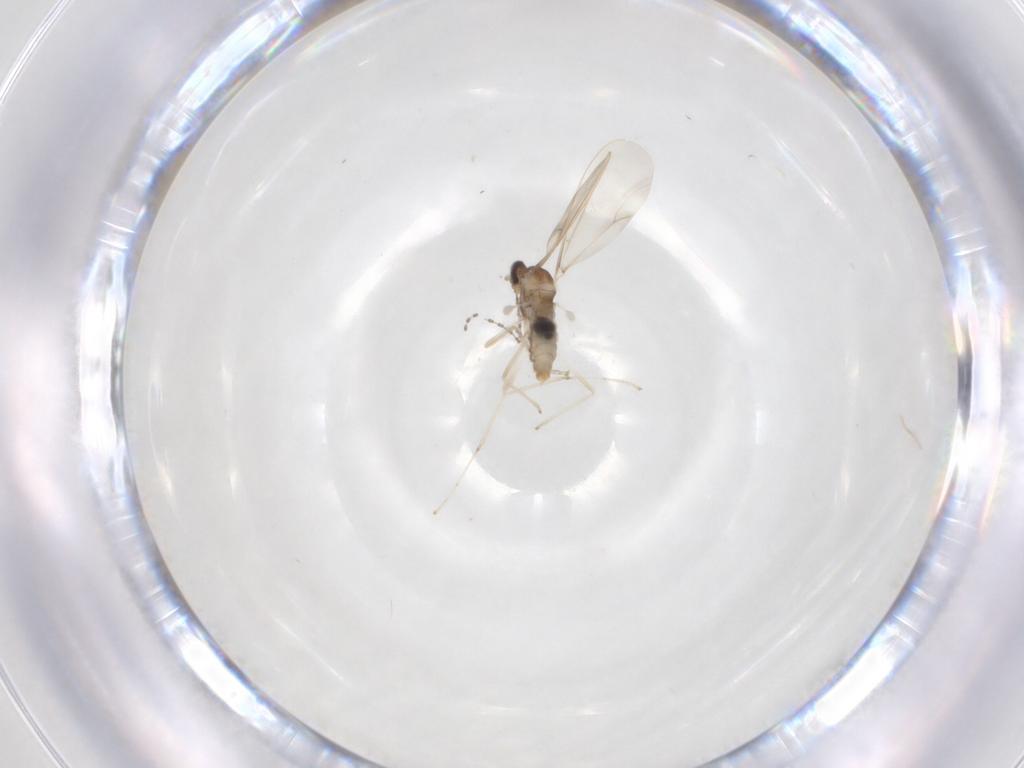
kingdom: Animalia
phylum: Arthropoda
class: Insecta
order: Diptera
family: Cecidomyiidae
